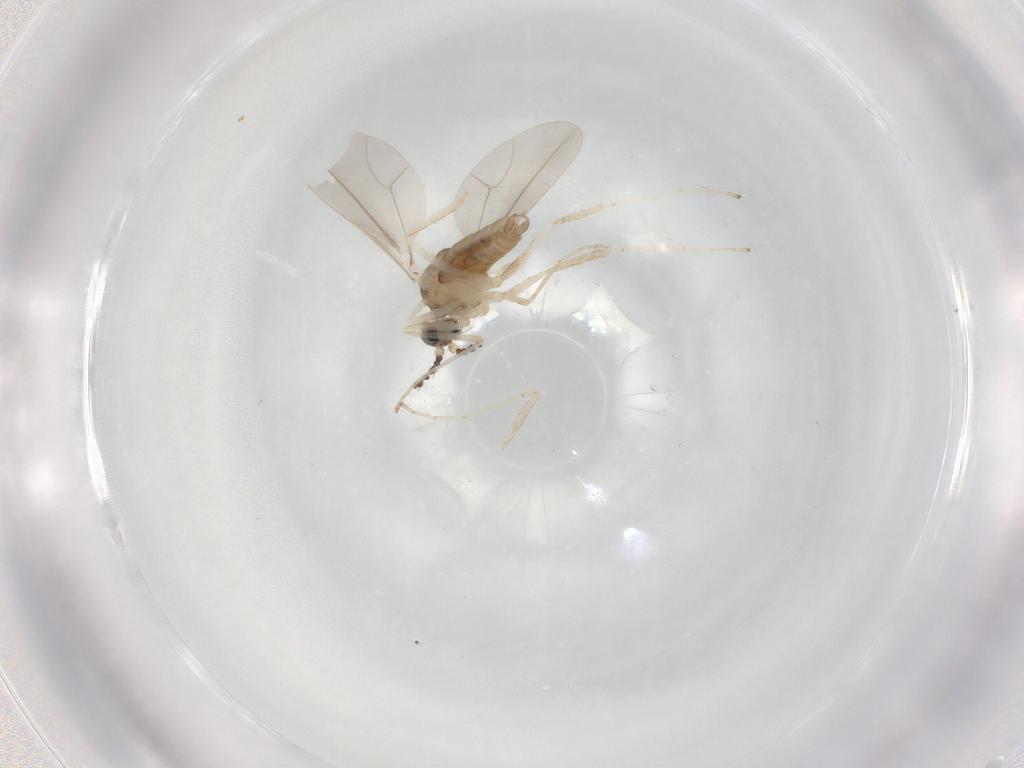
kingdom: Animalia
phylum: Arthropoda
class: Insecta
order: Diptera
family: Psychodidae
